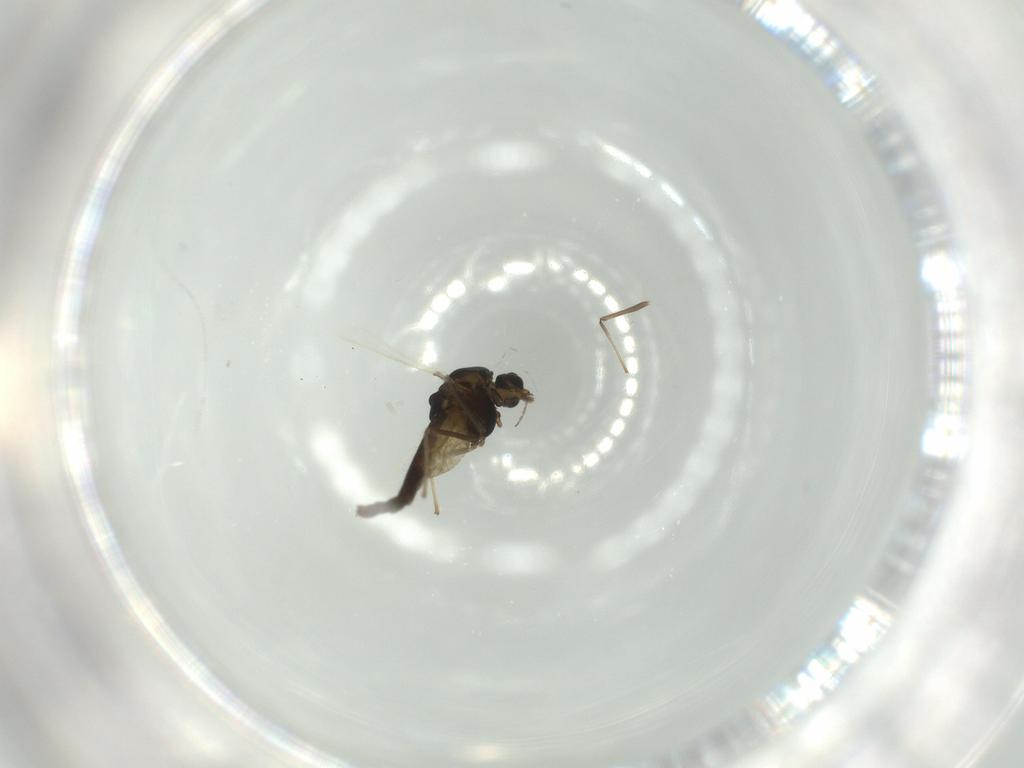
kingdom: Animalia
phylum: Arthropoda
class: Insecta
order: Diptera
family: Chironomidae
